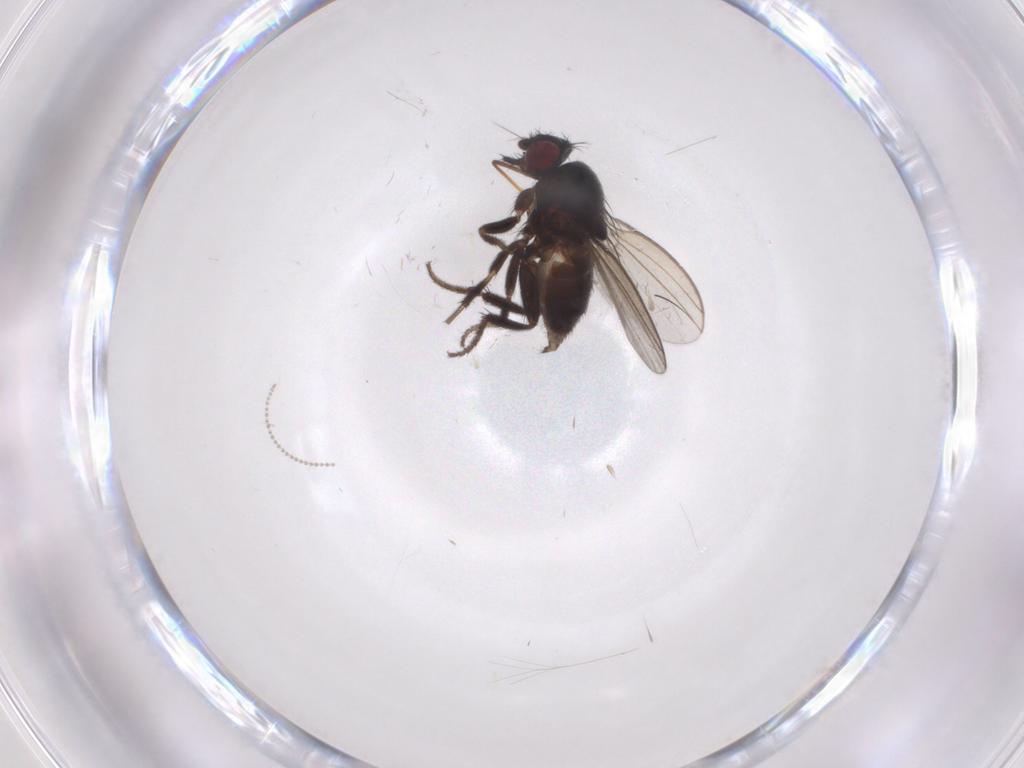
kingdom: Animalia
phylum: Arthropoda
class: Insecta
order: Diptera
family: Milichiidae
